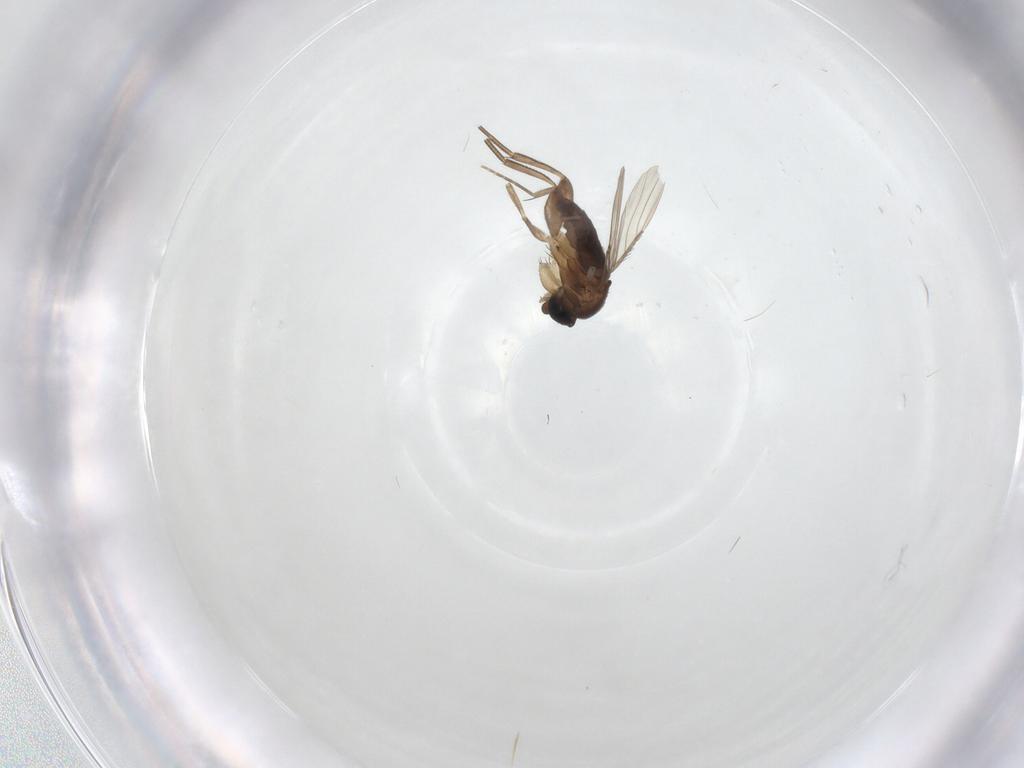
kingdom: Animalia
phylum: Arthropoda
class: Insecta
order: Diptera
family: Phoridae
